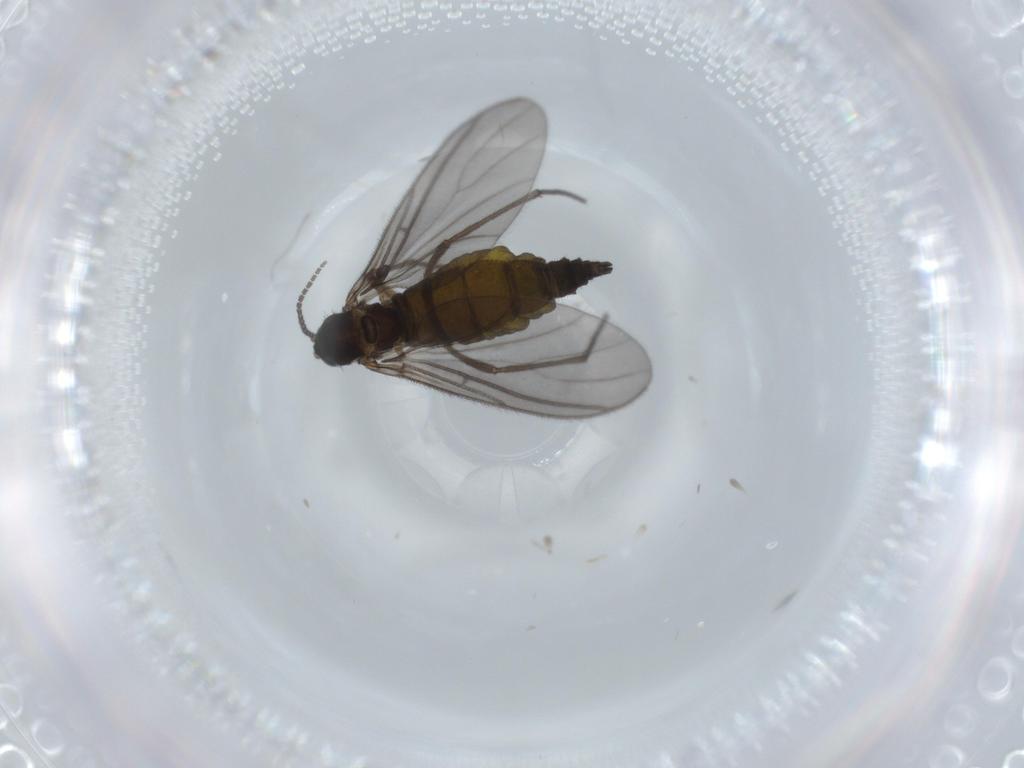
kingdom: Animalia
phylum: Arthropoda
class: Insecta
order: Diptera
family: Sciaridae
